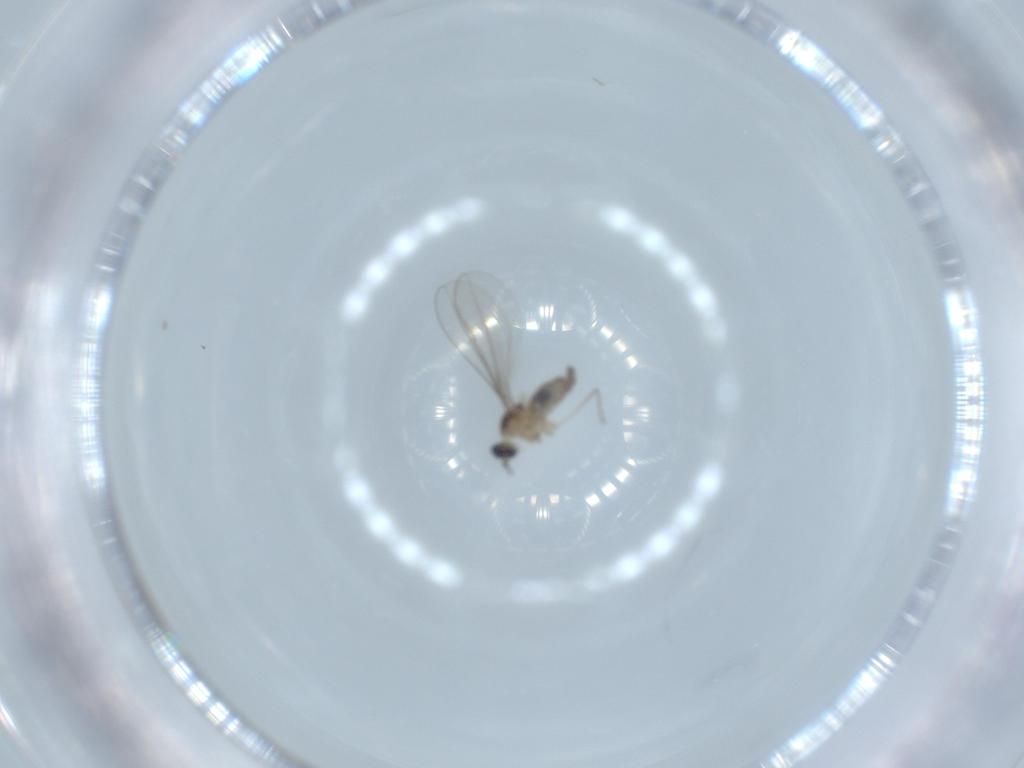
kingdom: Animalia
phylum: Arthropoda
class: Insecta
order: Diptera
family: Cecidomyiidae
